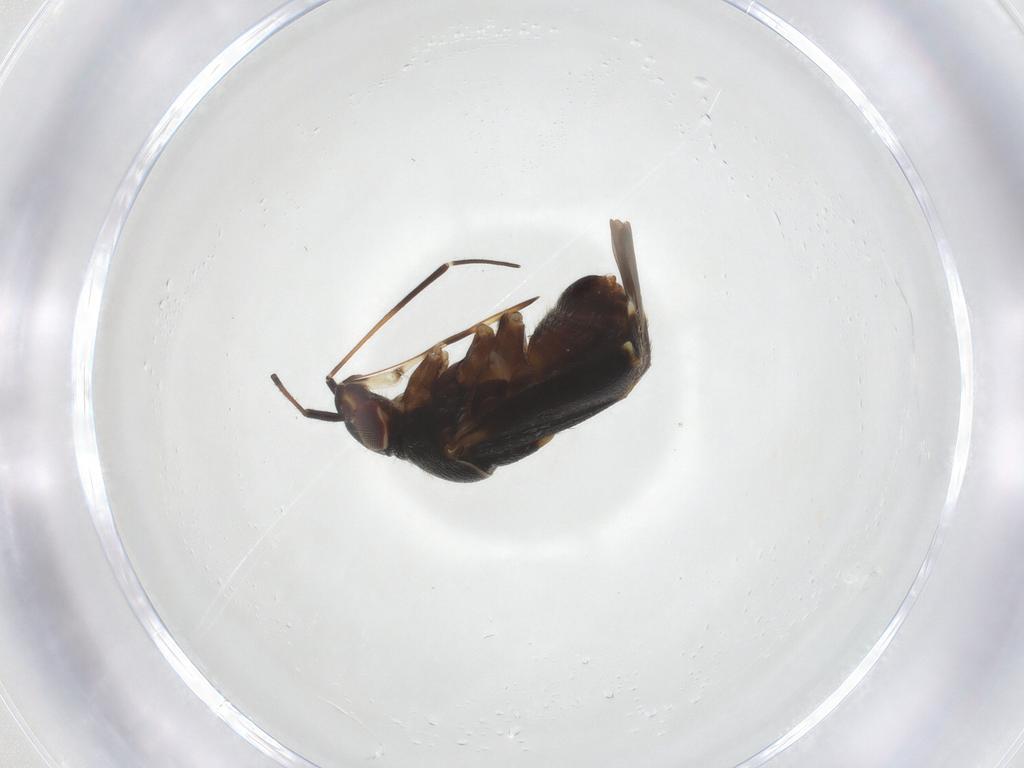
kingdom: Animalia
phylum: Arthropoda
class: Insecta
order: Hemiptera
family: Miridae
